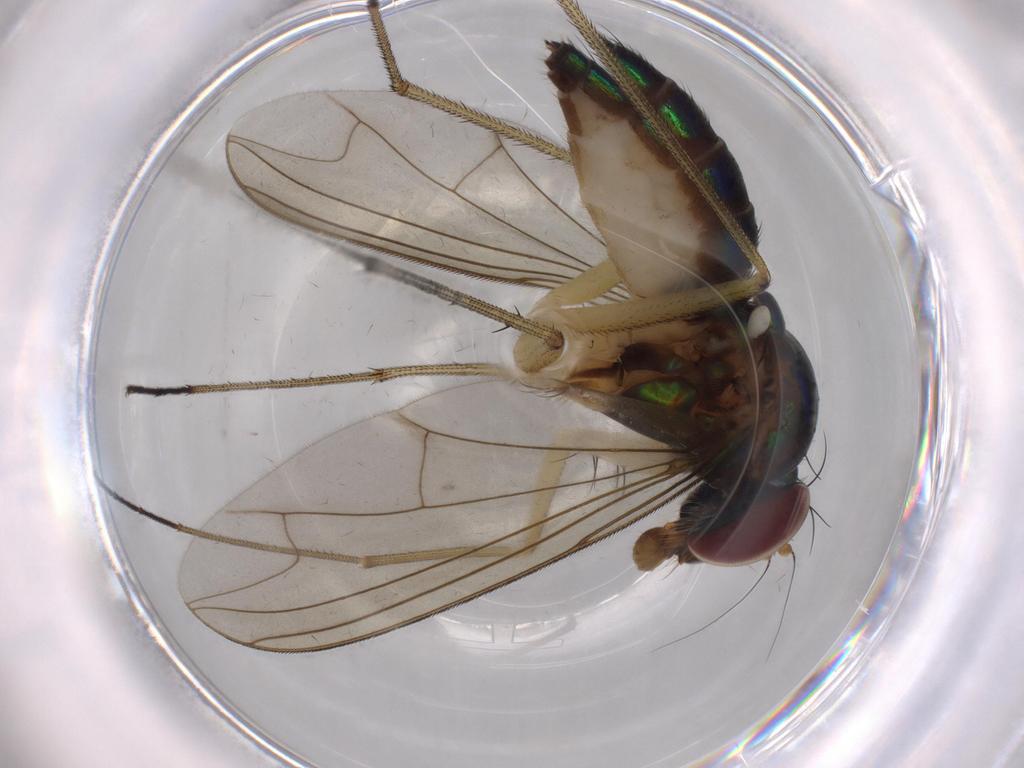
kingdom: Animalia
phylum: Arthropoda
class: Insecta
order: Diptera
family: Dolichopodidae
